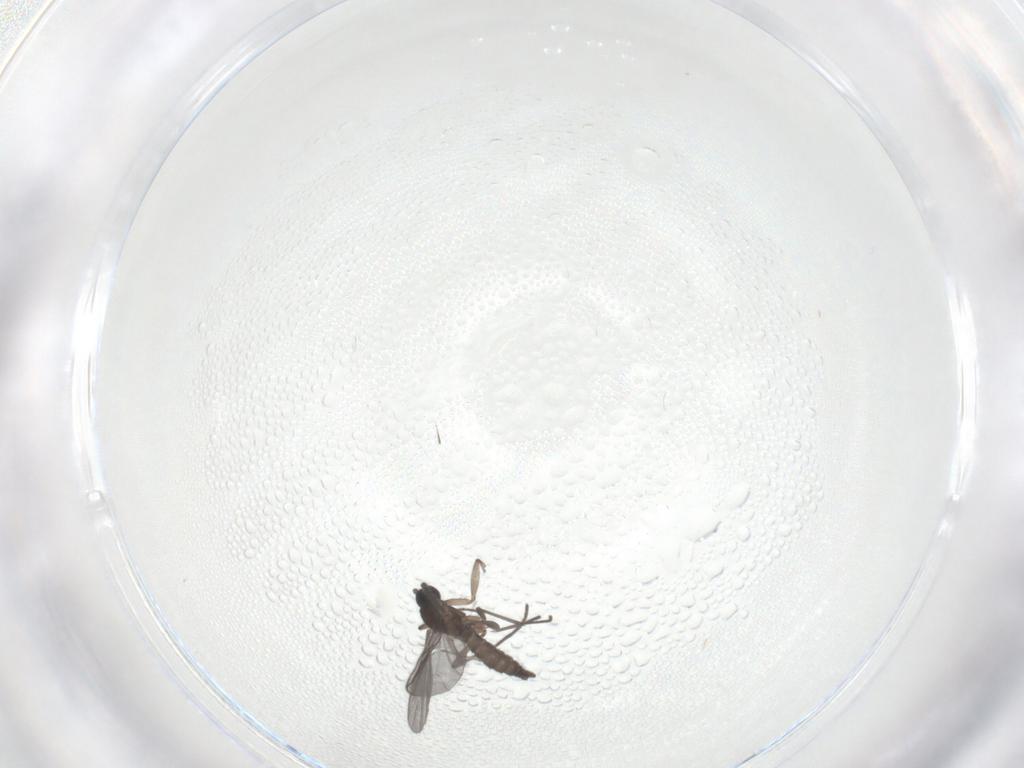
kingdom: Animalia
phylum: Arthropoda
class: Insecta
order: Diptera
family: Sciaridae
